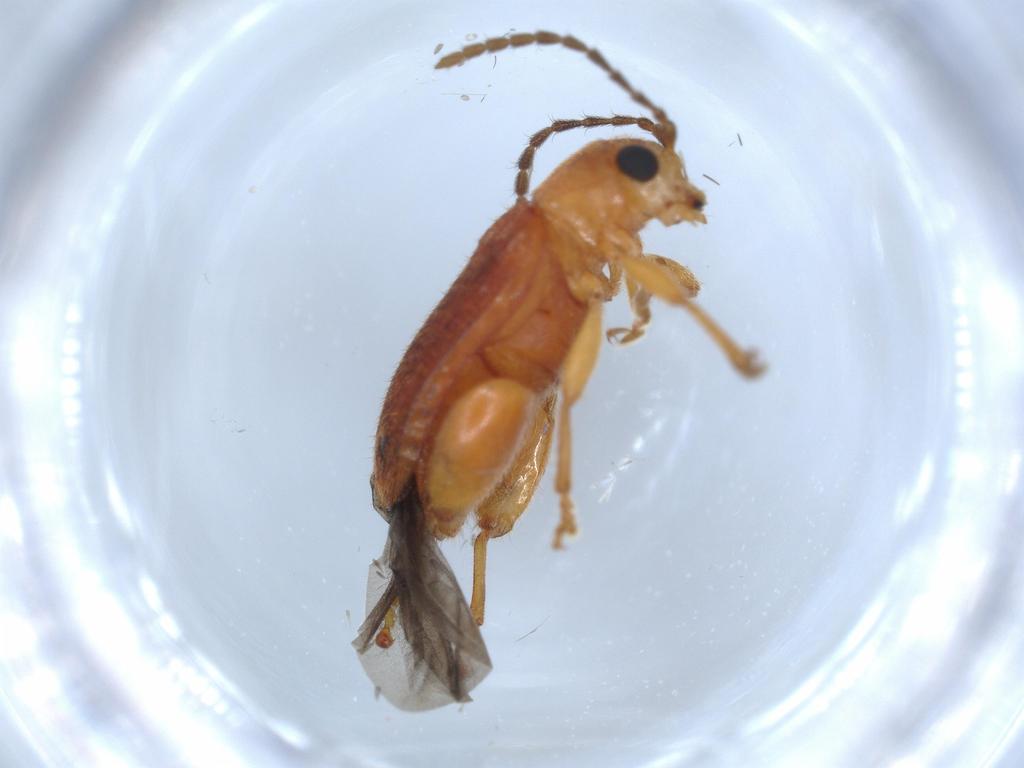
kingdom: Animalia
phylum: Arthropoda
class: Insecta
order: Coleoptera
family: Chrysomelidae
